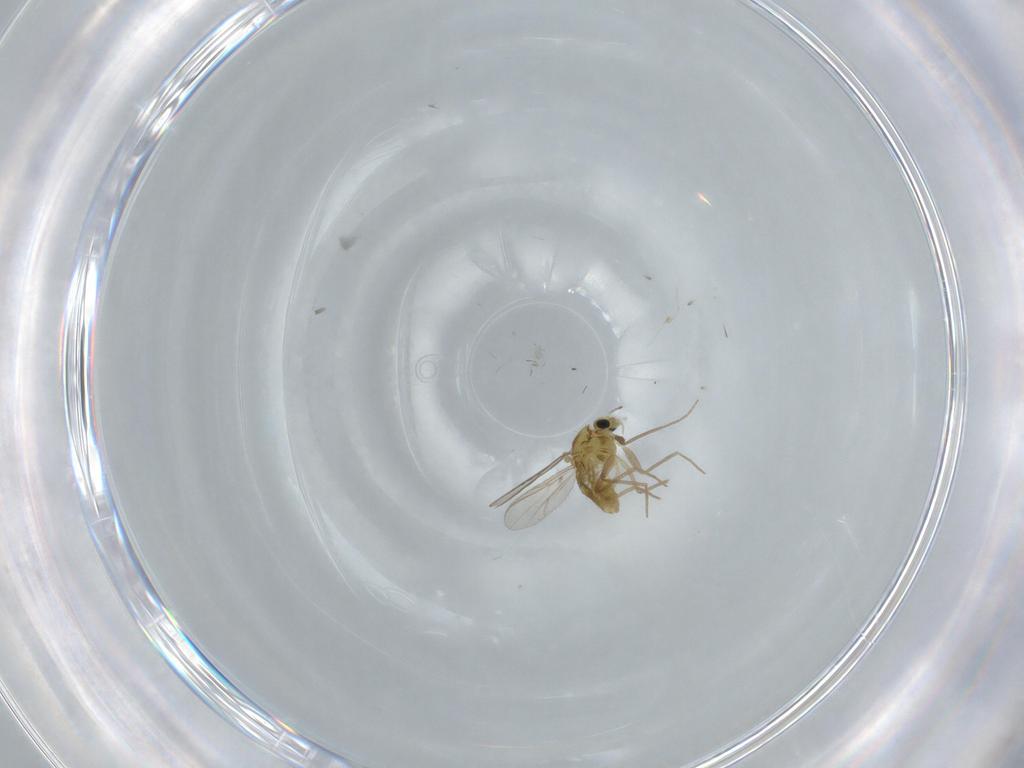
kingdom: Animalia
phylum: Arthropoda
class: Insecta
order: Diptera
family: Chironomidae
